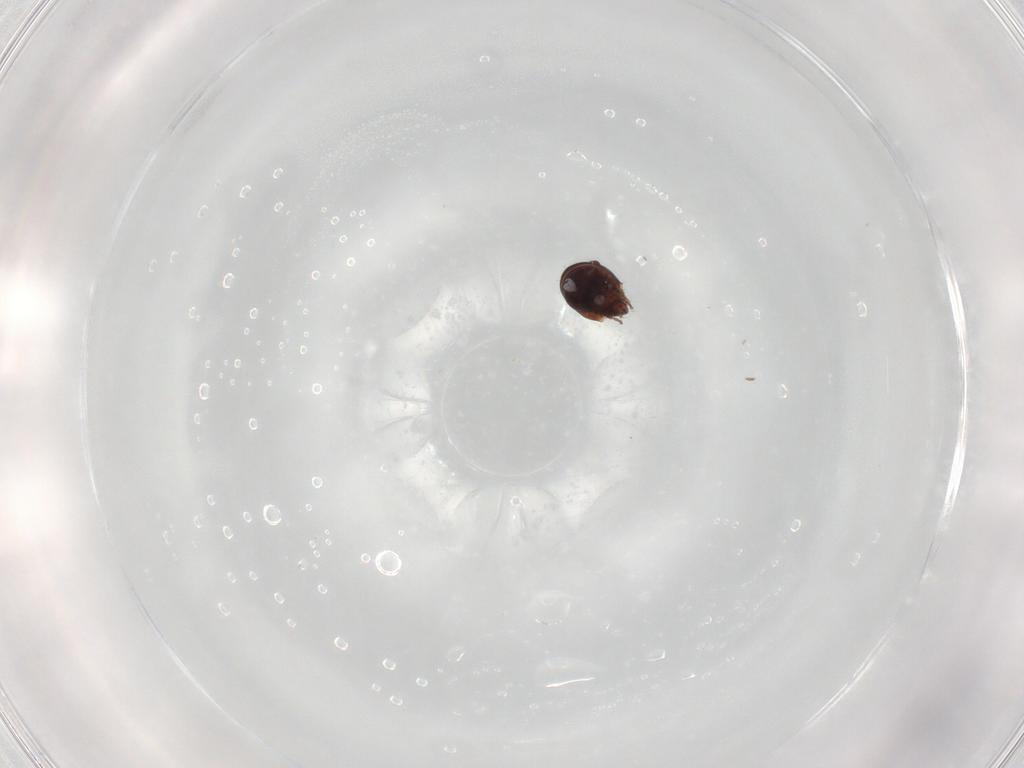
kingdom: Animalia
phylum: Arthropoda
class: Arachnida
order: Sarcoptiformes
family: Ceratozetidae
